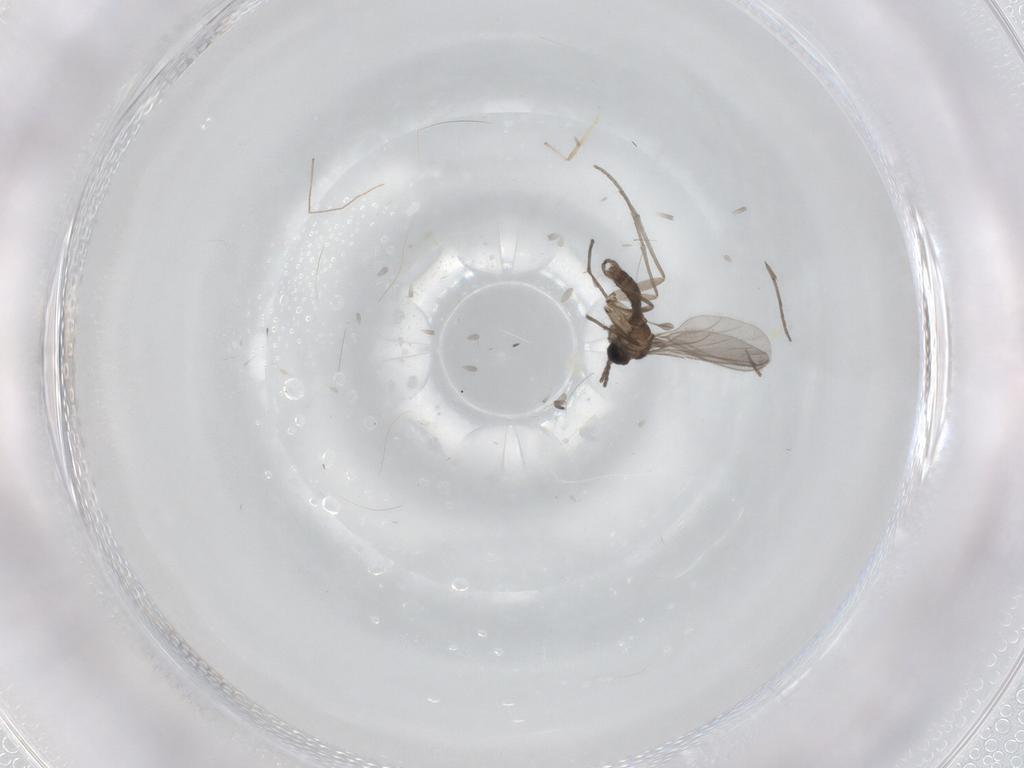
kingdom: Animalia
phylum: Arthropoda
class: Insecta
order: Diptera
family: Sciaridae
